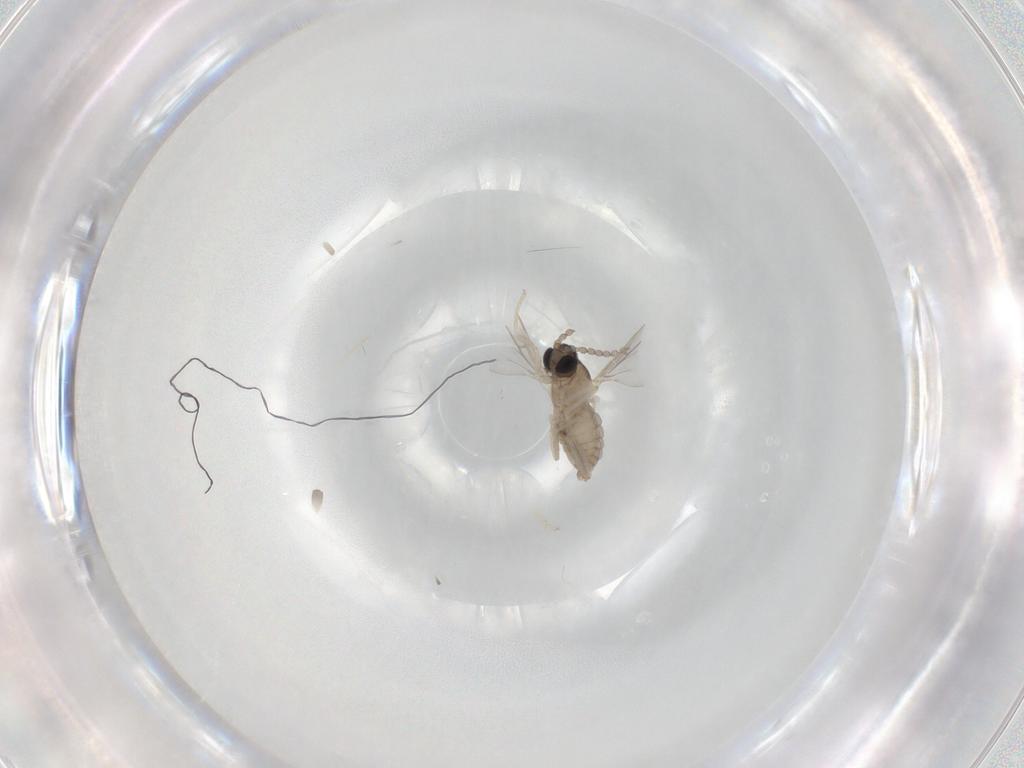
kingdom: Animalia
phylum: Arthropoda
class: Insecta
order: Diptera
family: Cecidomyiidae
